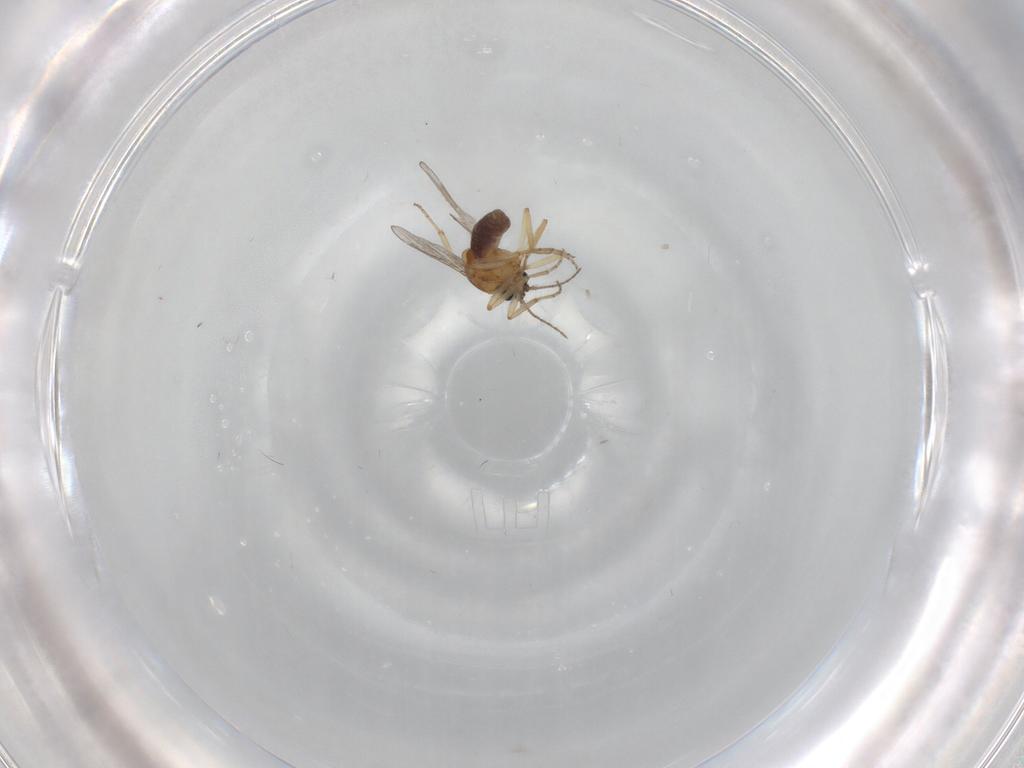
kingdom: Animalia
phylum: Arthropoda
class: Insecta
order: Diptera
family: Ceratopogonidae
